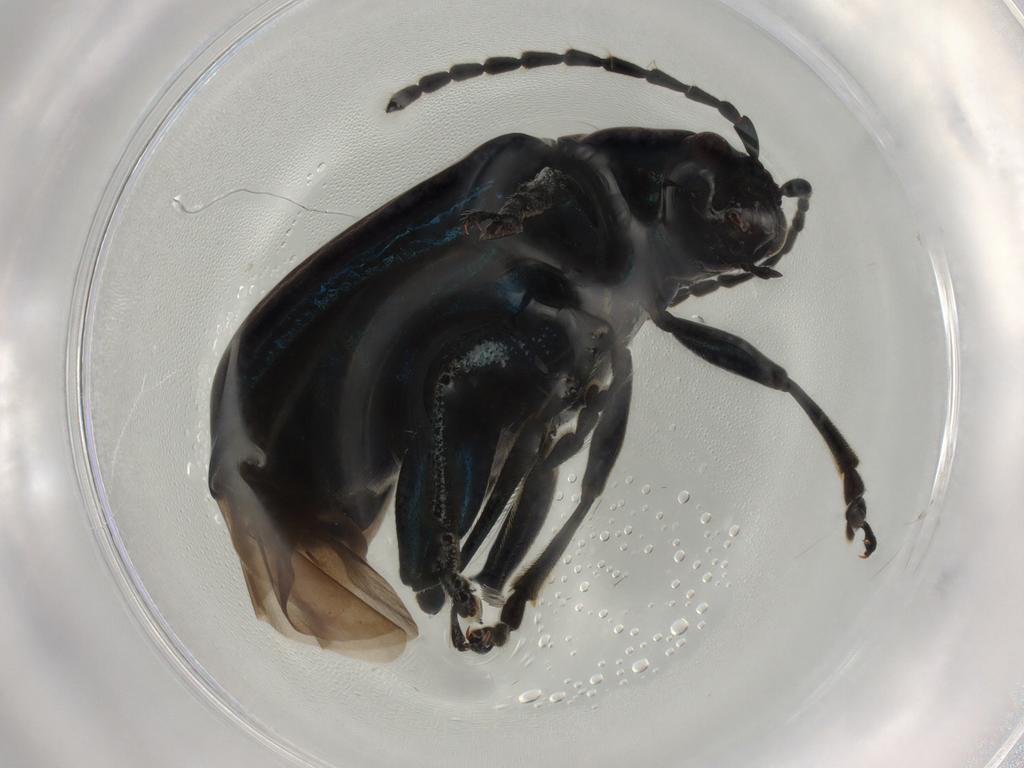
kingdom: Animalia
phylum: Arthropoda
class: Insecta
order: Coleoptera
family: Chrysomelidae
